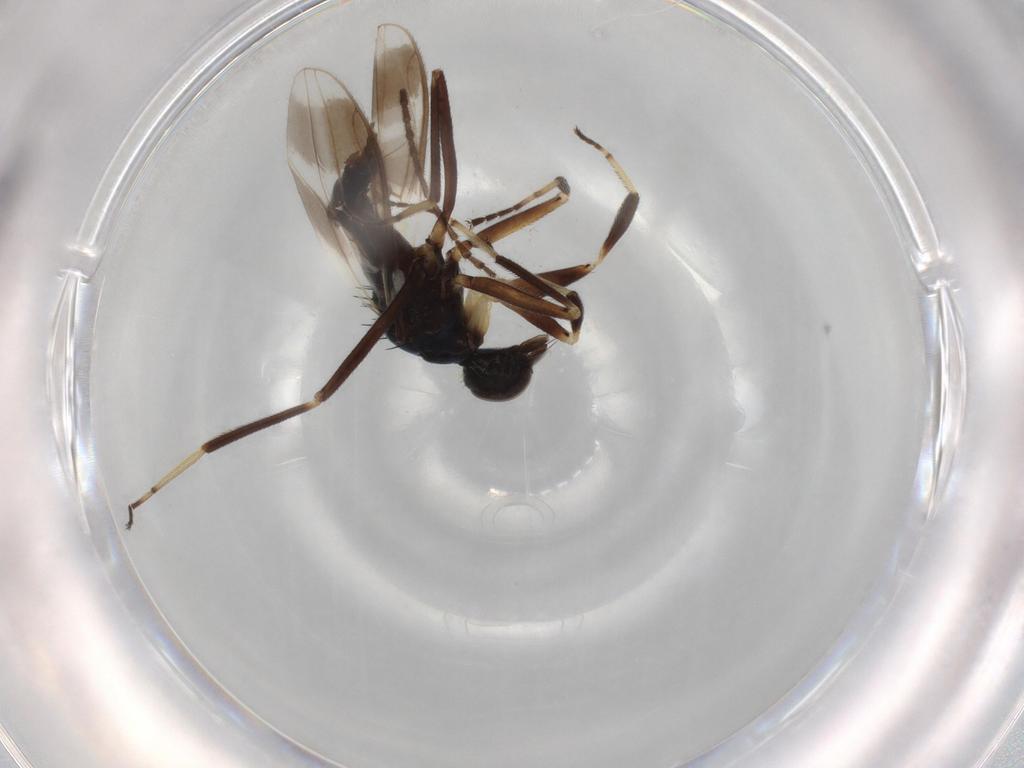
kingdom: Animalia
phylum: Arthropoda
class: Insecta
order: Diptera
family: Hybotidae
